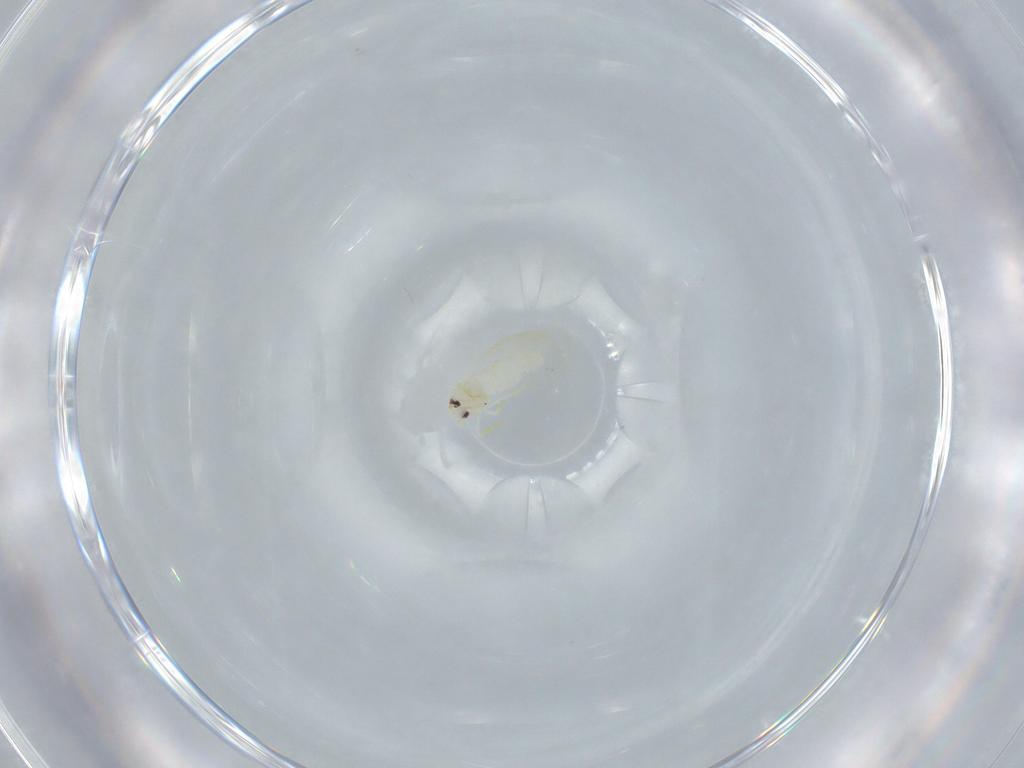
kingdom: Animalia
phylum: Arthropoda
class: Insecta
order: Hemiptera
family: Aleyrodidae
